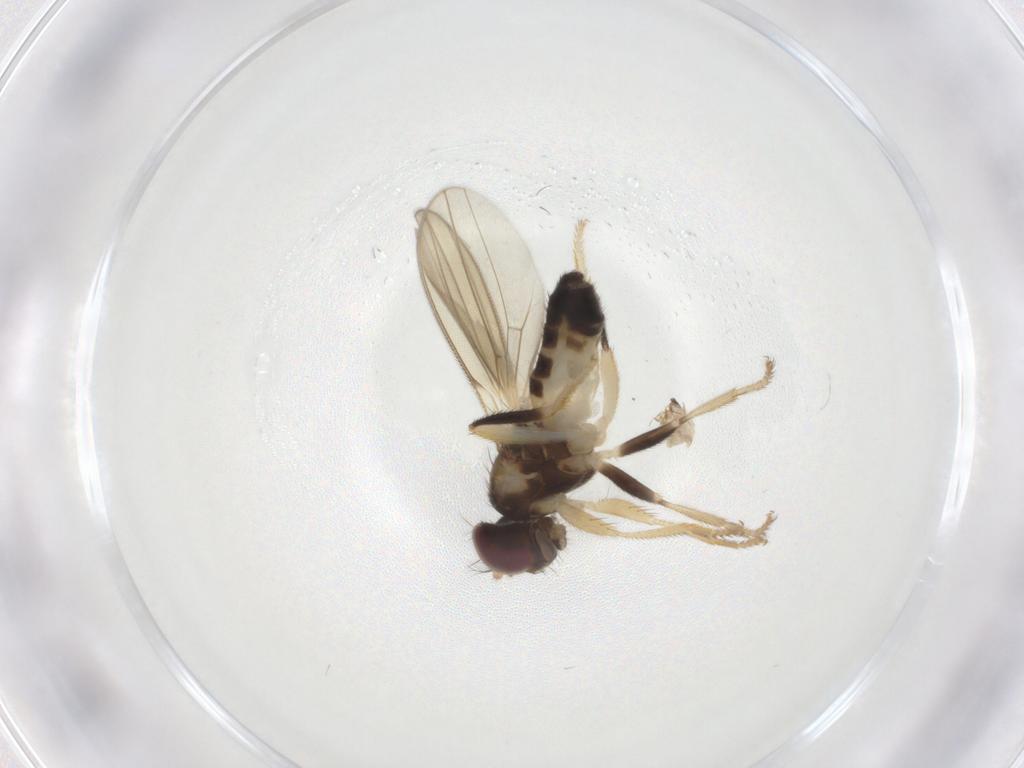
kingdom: Animalia
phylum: Arthropoda
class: Insecta
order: Diptera
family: Periscelididae
